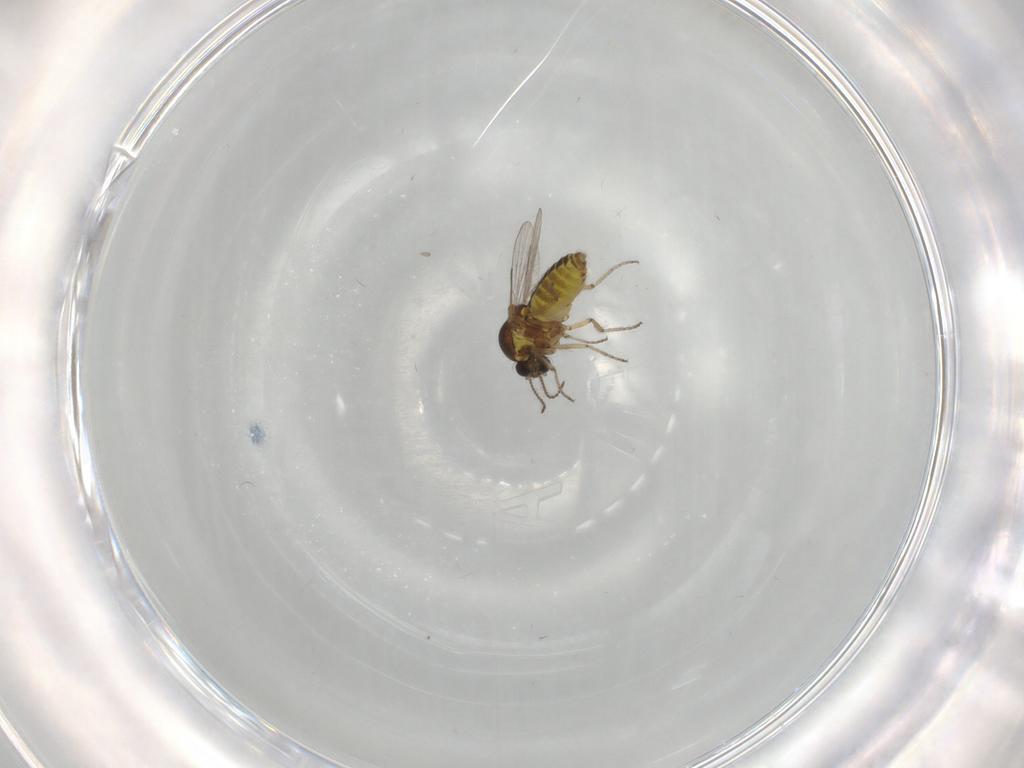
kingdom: Animalia
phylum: Arthropoda
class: Insecta
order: Diptera
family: Ceratopogonidae
